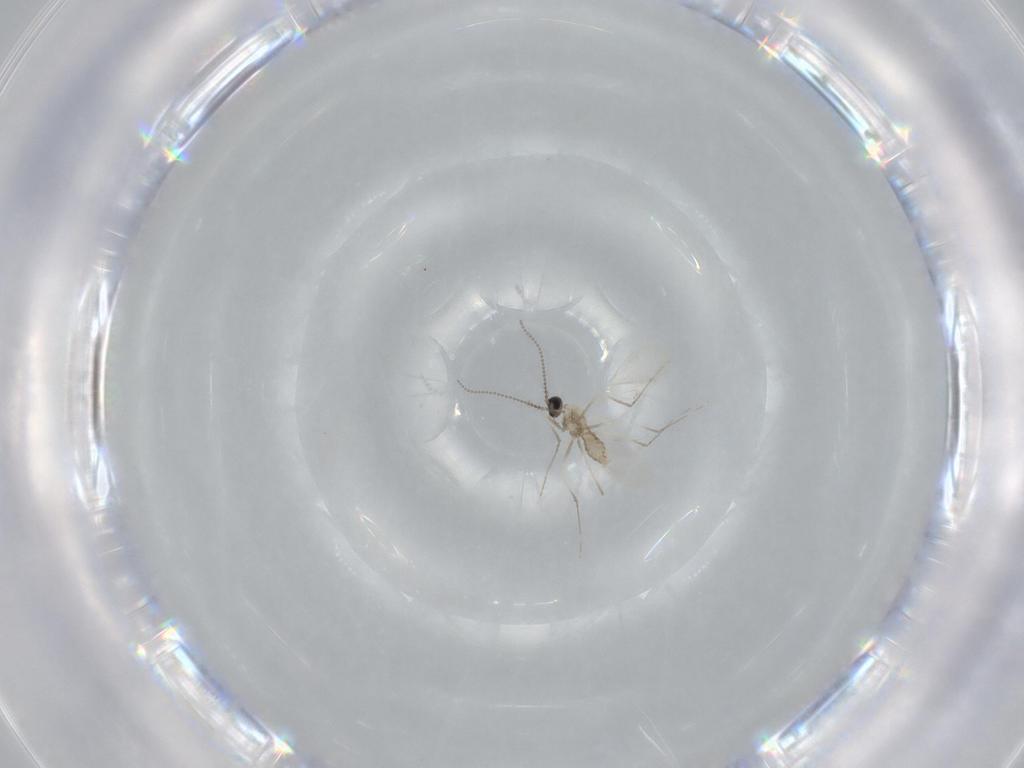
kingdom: Animalia
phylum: Arthropoda
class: Insecta
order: Diptera
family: Cecidomyiidae
